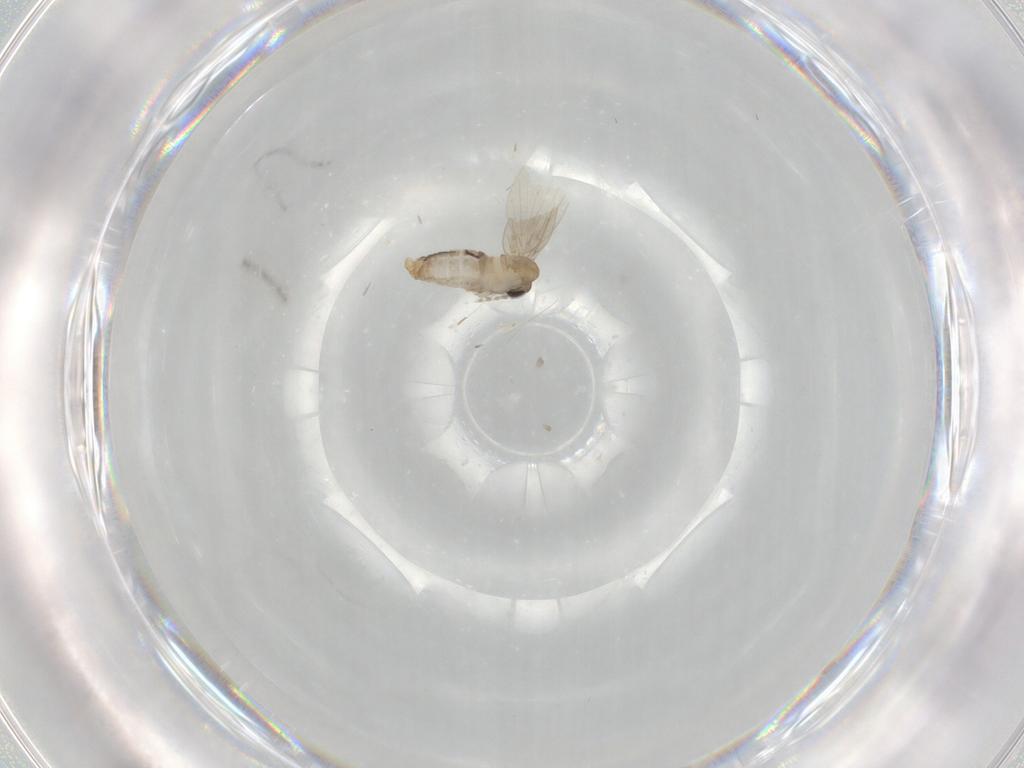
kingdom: Animalia
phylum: Arthropoda
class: Insecta
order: Diptera
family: Psychodidae
